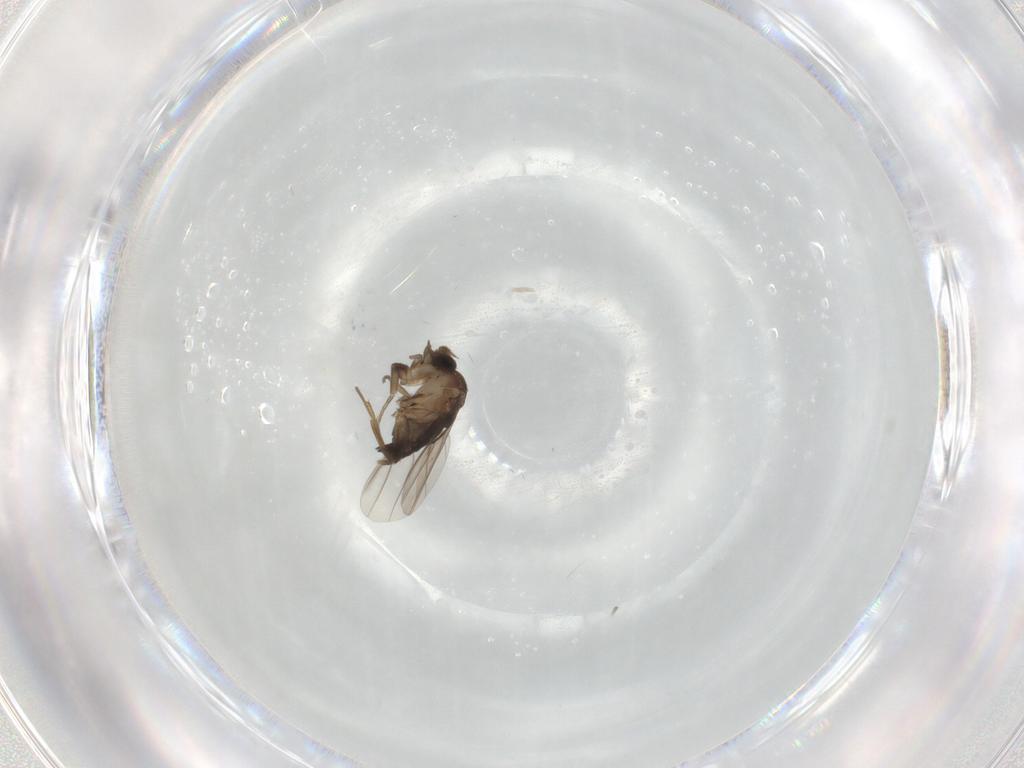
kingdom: Animalia
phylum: Arthropoda
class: Insecta
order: Diptera
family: Phoridae
